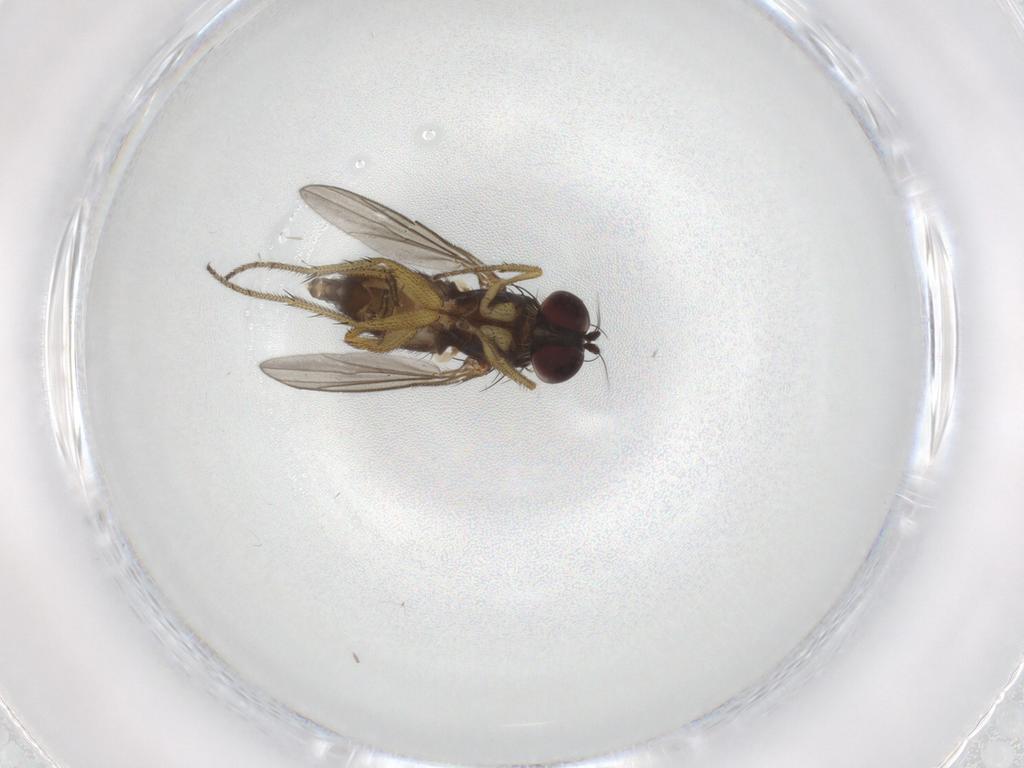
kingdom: Animalia
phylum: Arthropoda
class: Insecta
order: Diptera
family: Dolichopodidae
